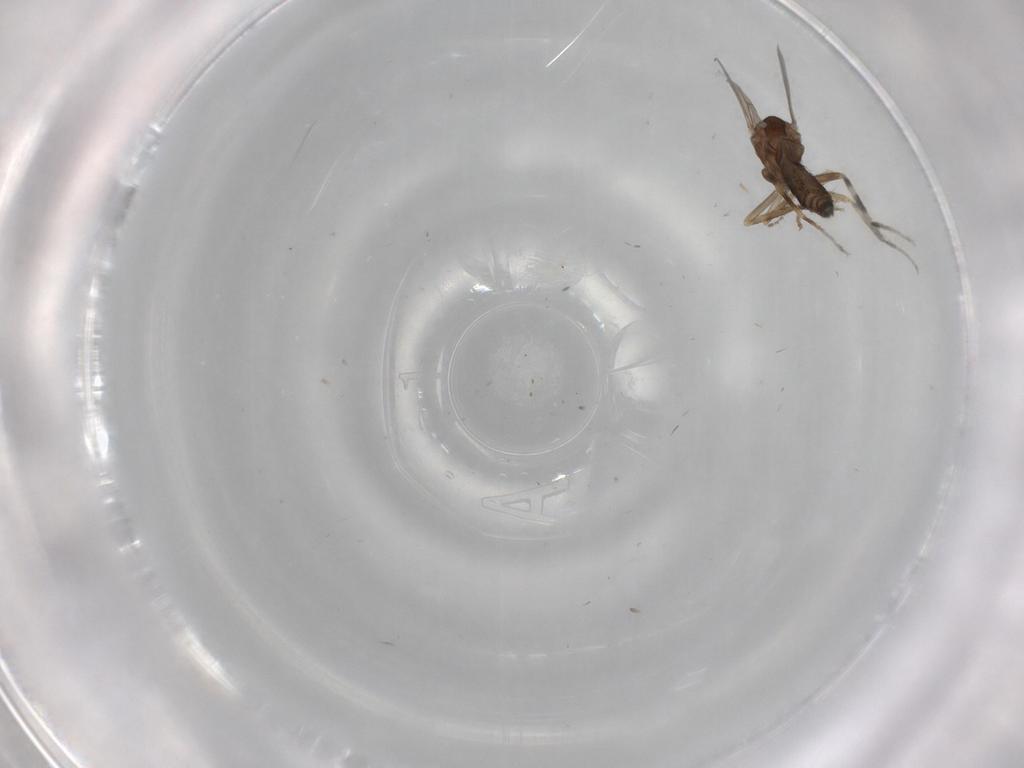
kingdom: Animalia
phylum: Arthropoda
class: Insecta
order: Diptera
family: Ceratopogonidae
